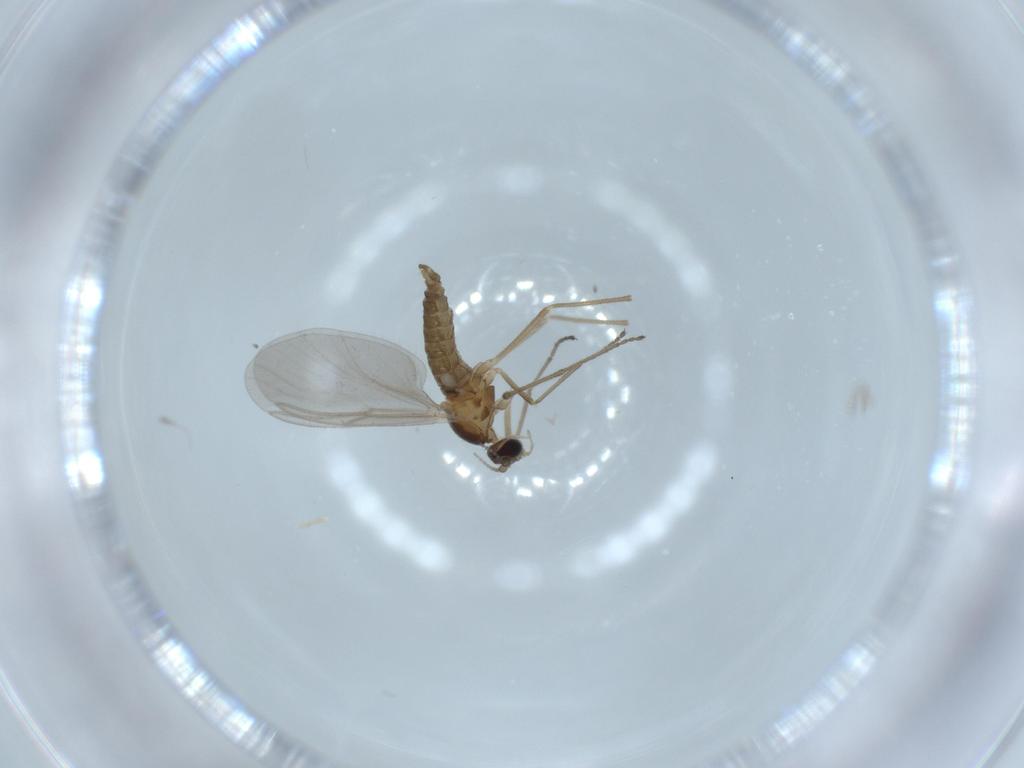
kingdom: Animalia
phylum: Arthropoda
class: Insecta
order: Diptera
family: Cecidomyiidae
